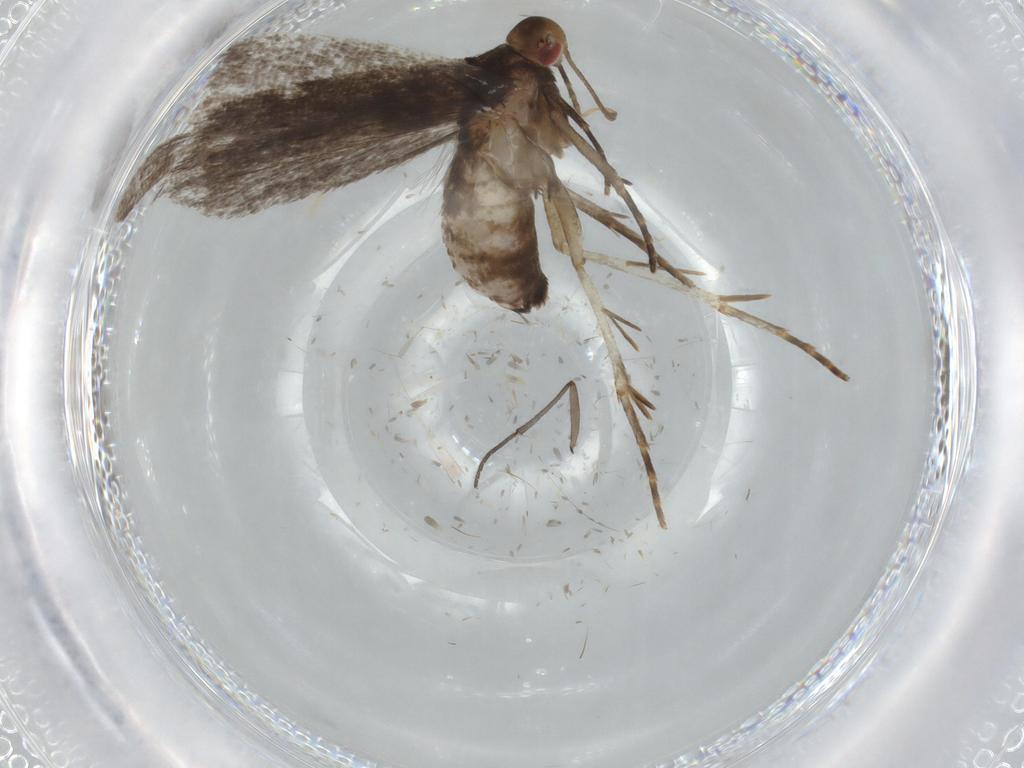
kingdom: Animalia
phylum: Arthropoda
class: Insecta
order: Lepidoptera
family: Gelechiidae
